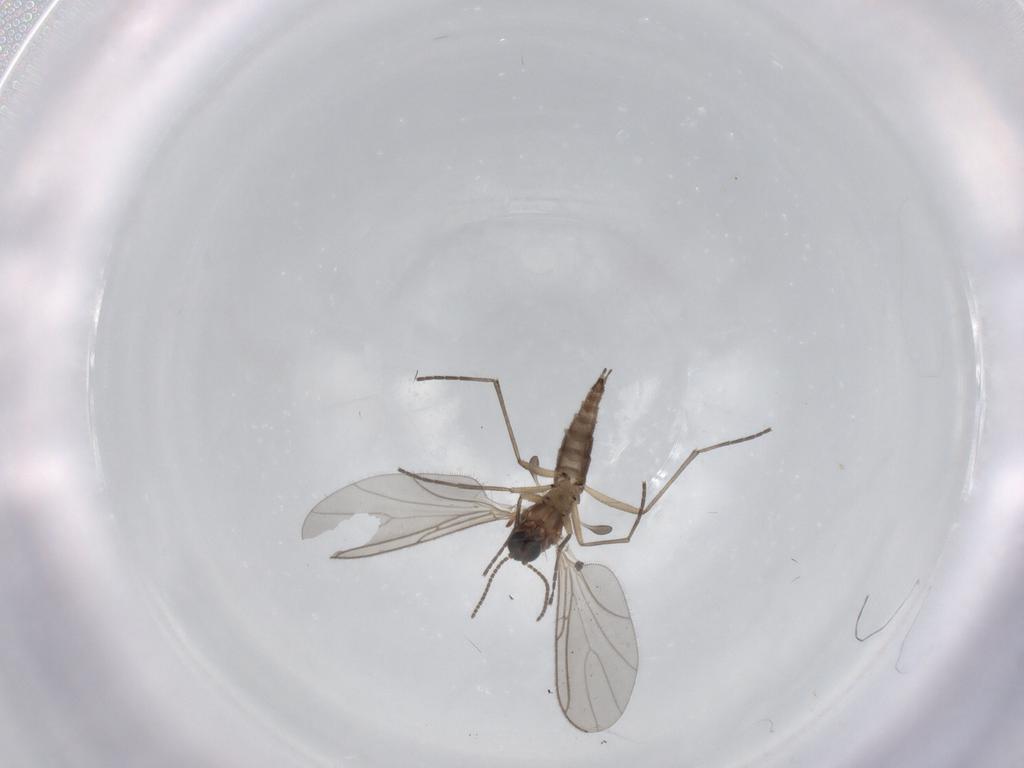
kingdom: Animalia
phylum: Arthropoda
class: Insecta
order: Diptera
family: Sciaridae
